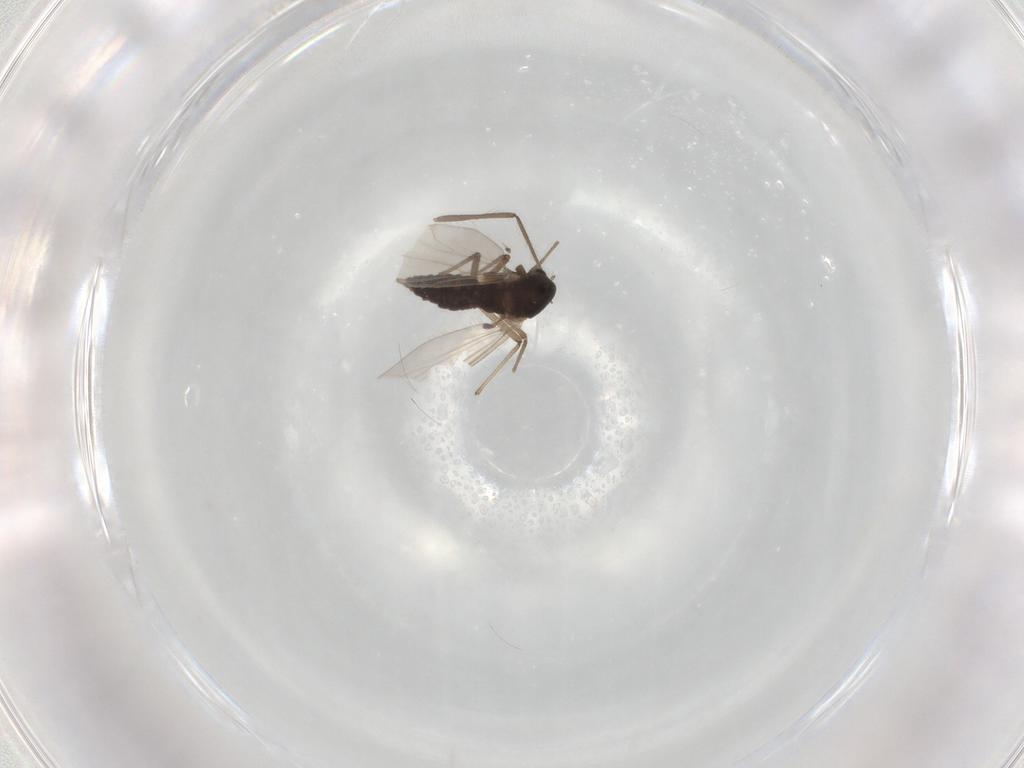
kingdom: Animalia
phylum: Arthropoda
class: Insecta
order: Diptera
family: Chironomidae
